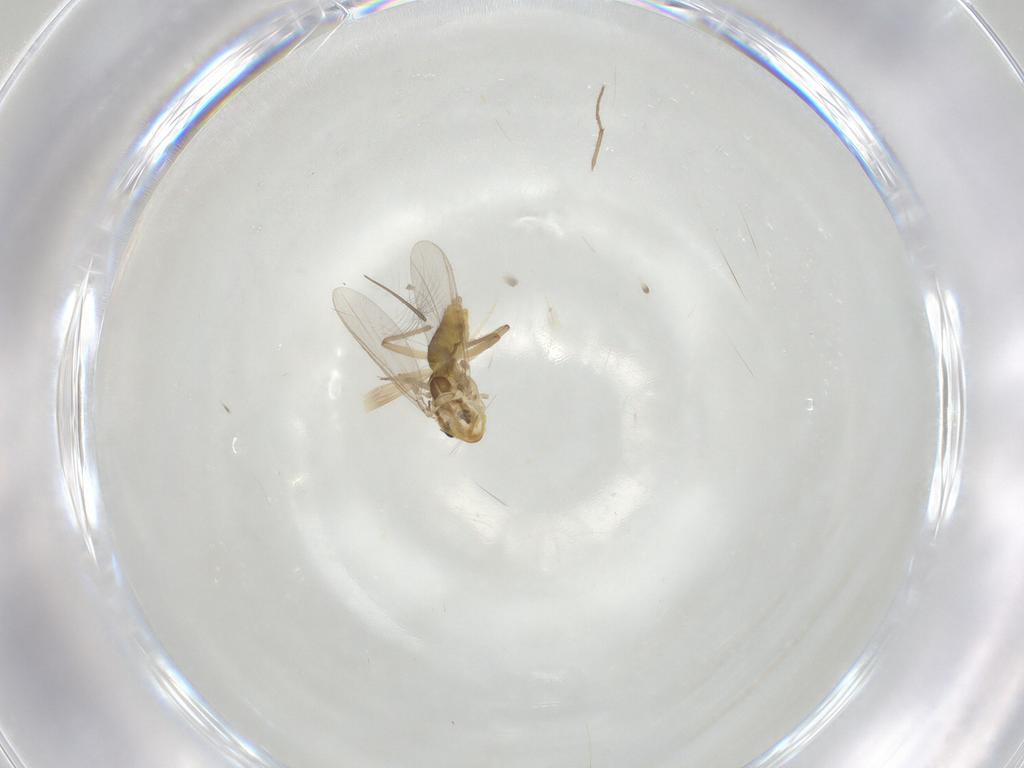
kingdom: Animalia
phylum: Arthropoda
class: Insecta
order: Diptera
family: Chironomidae
